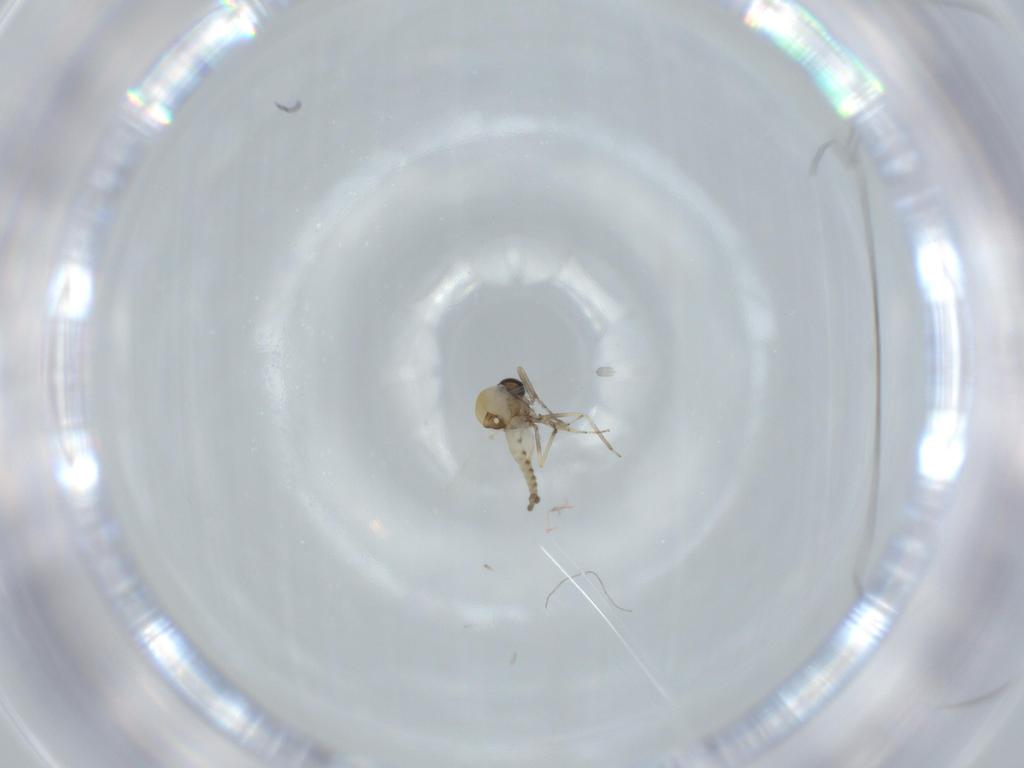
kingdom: Animalia
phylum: Arthropoda
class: Insecta
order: Diptera
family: Ceratopogonidae
